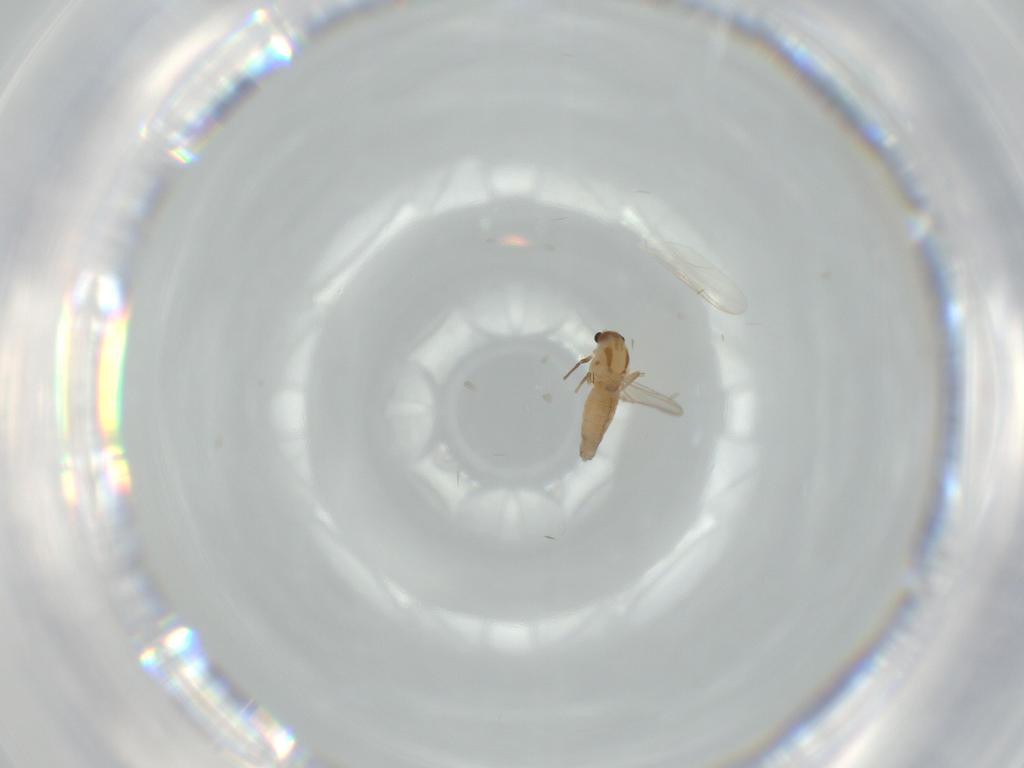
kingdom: Animalia
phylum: Arthropoda
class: Insecta
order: Diptera
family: Chironomidae
